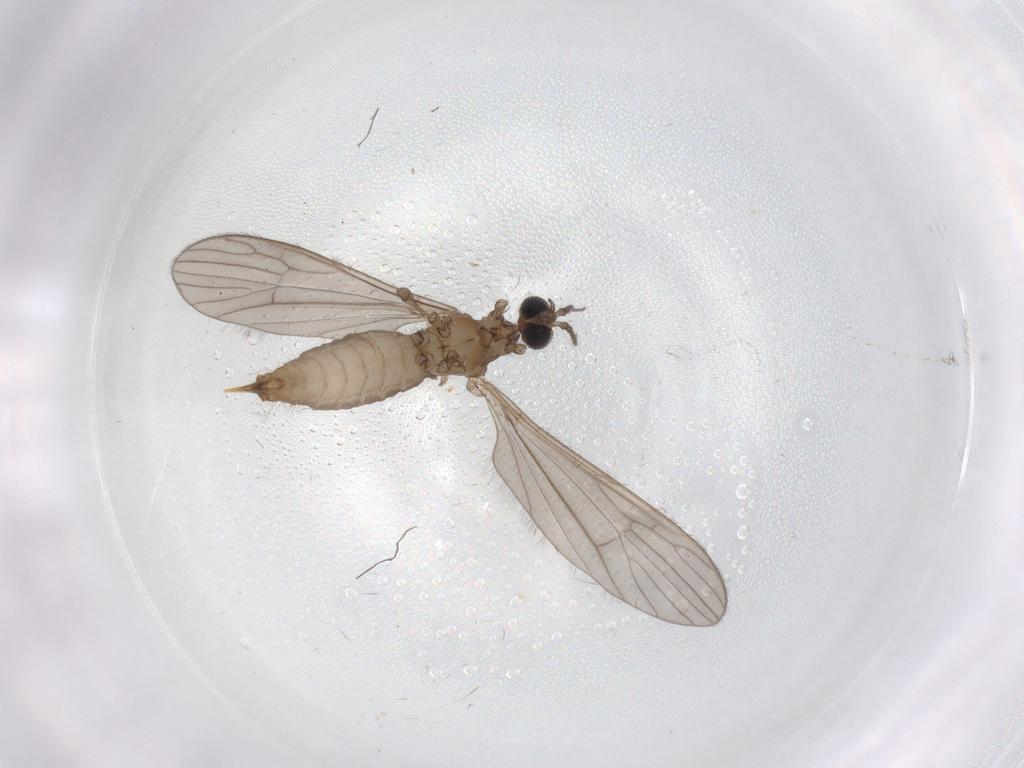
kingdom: Animalia
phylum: Arthropoda
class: Insecta
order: Diptera
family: Limoniidae
